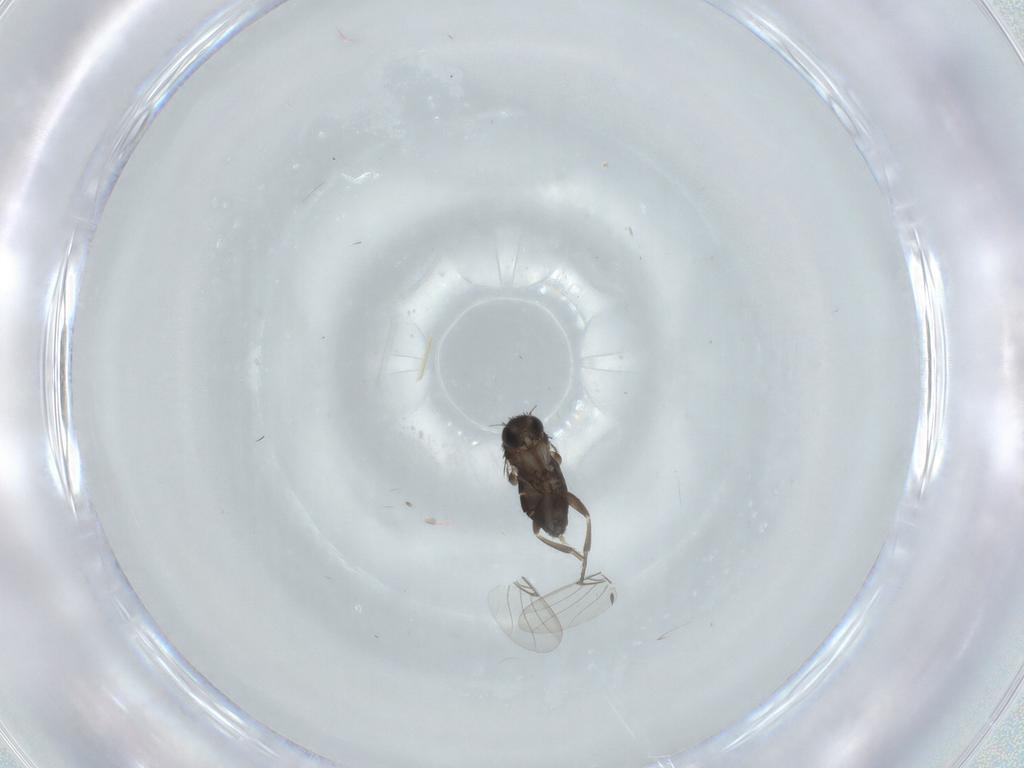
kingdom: Animalia
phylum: Arthropoda
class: Insecta
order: Diptera
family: Phoridae
